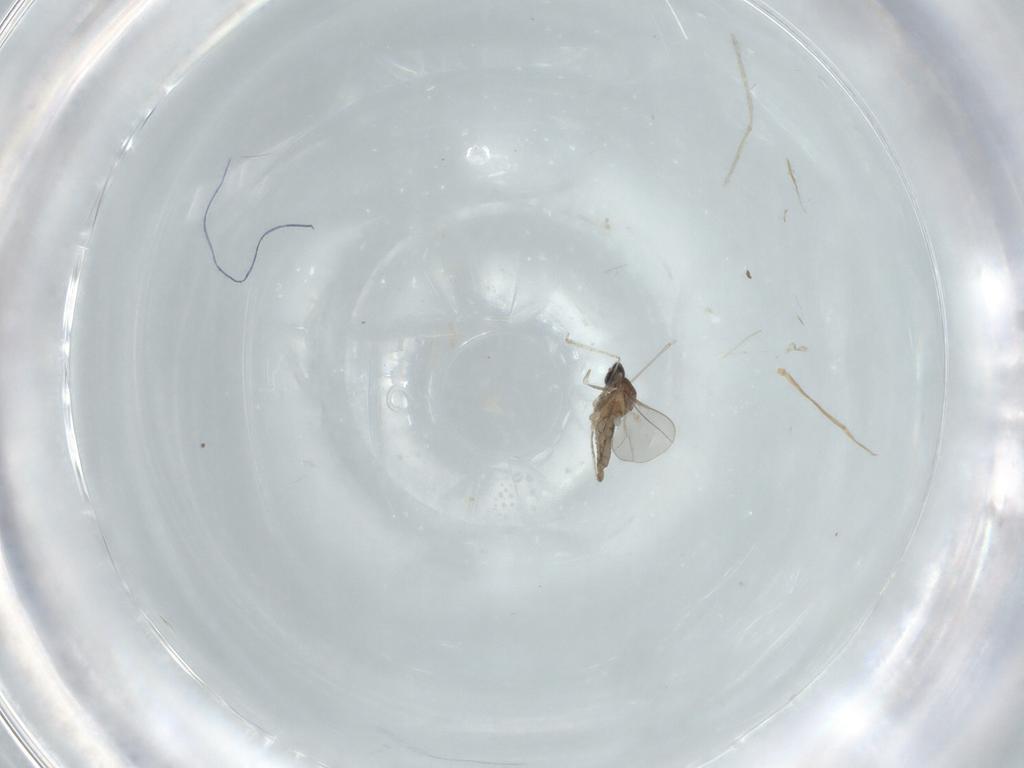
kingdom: Animalia
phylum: Arthropoda
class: Insecta
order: Diptera
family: Cecidomyiidae
